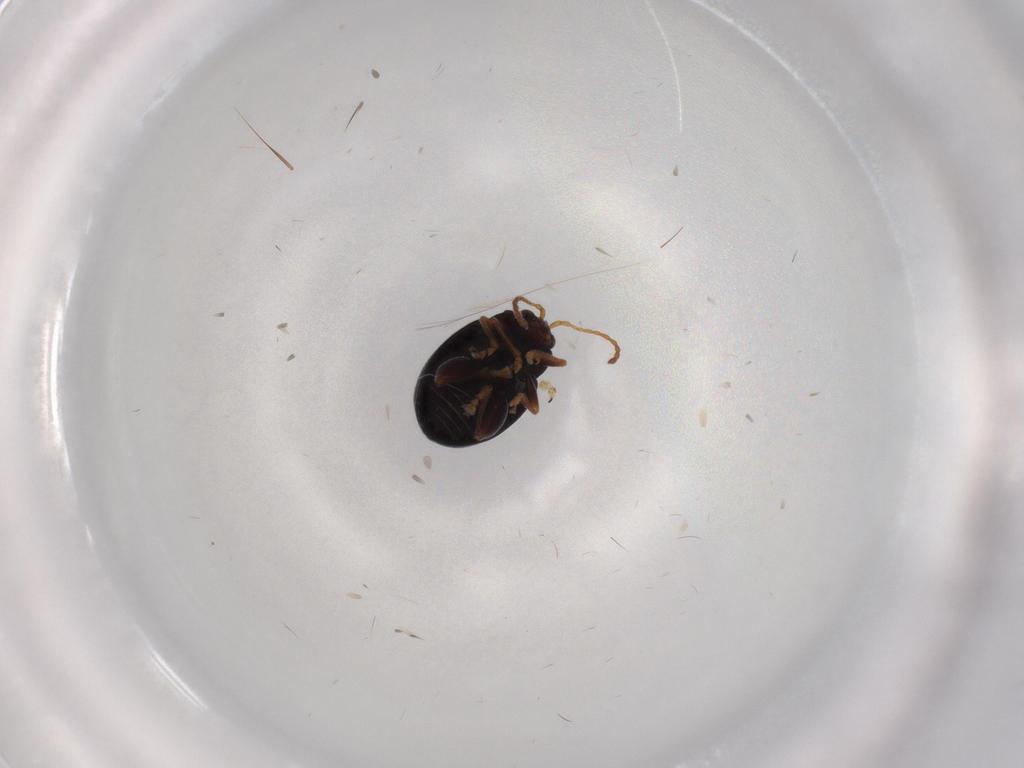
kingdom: Animalia
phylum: Arthropoda
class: Insecta
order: Coleoptera
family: Chrysomelidae
